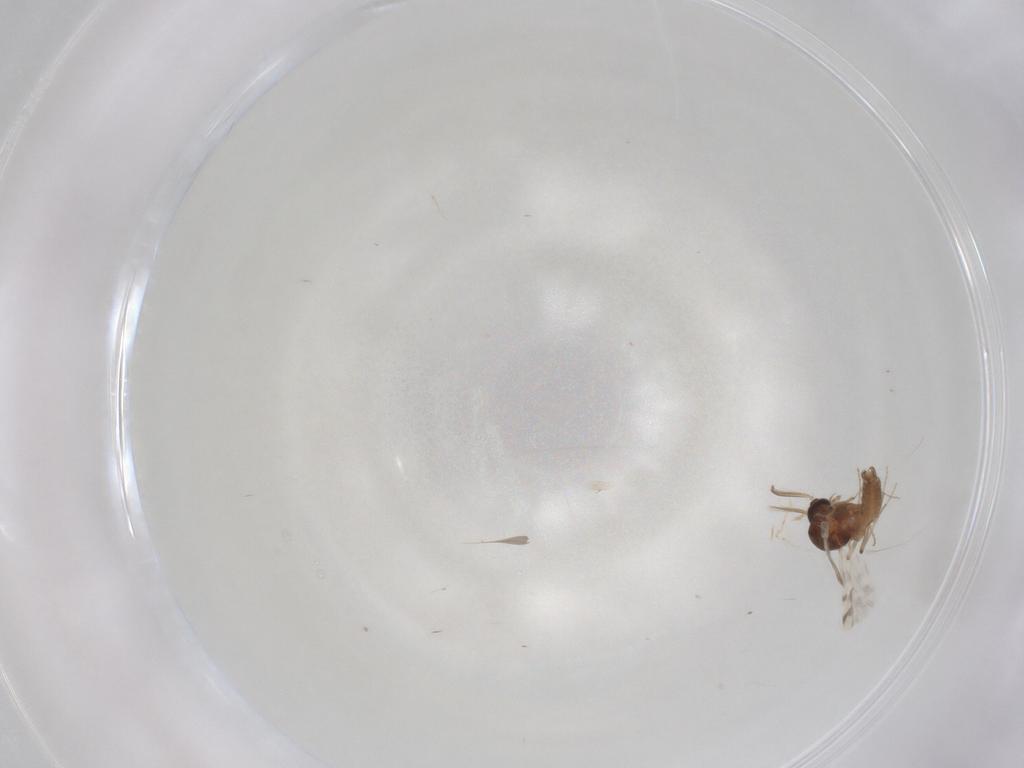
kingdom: Animalia
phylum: Arthropoda
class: Insecta
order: Diptera
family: Ceratopogonidae
